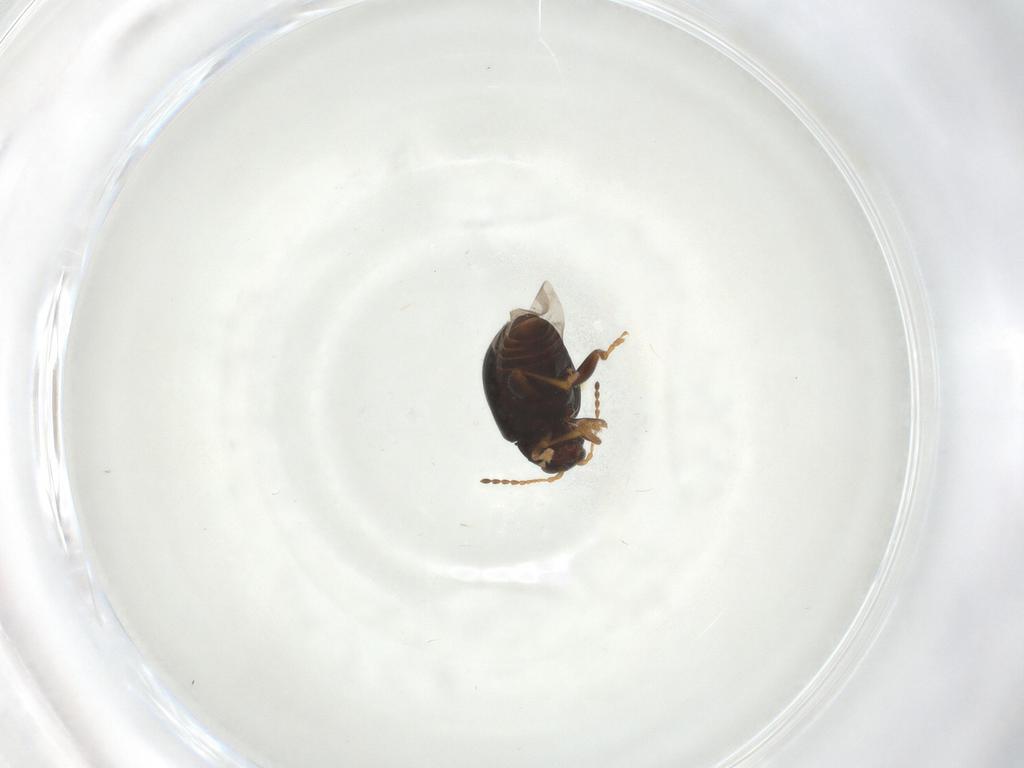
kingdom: Animalia
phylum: Arthropoda
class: Insecta
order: Coleoptera
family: Chrysomelidae
